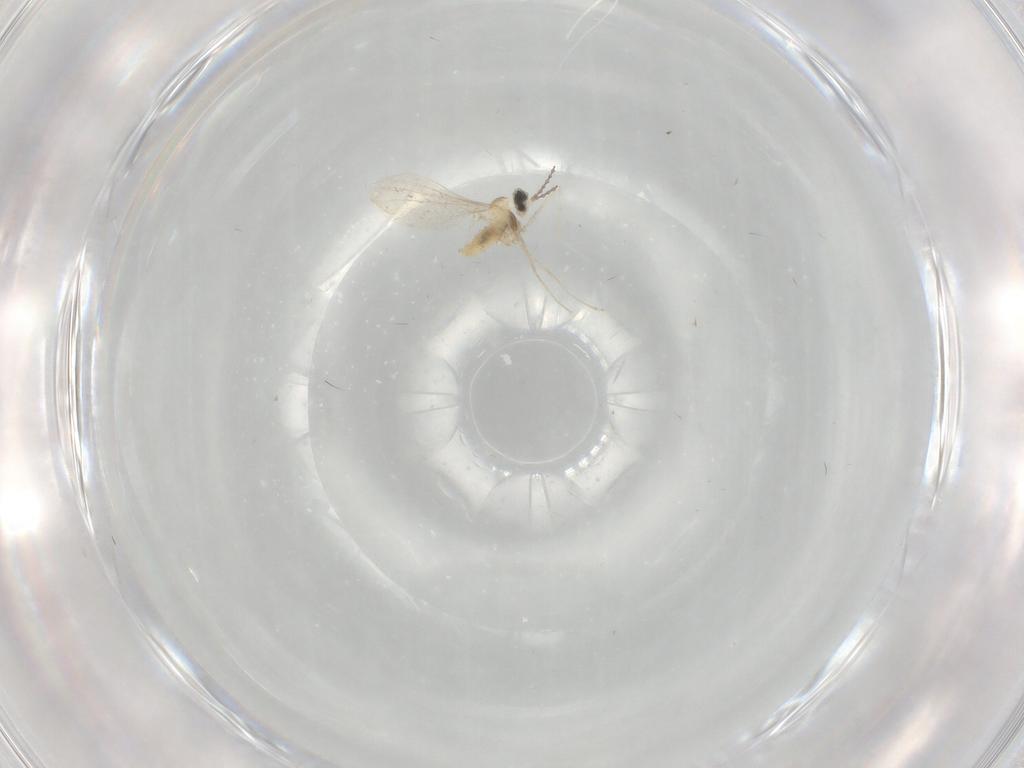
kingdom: Animalia
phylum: Arthropoda
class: Insecta
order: Diptera
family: Cecidomyiidae
